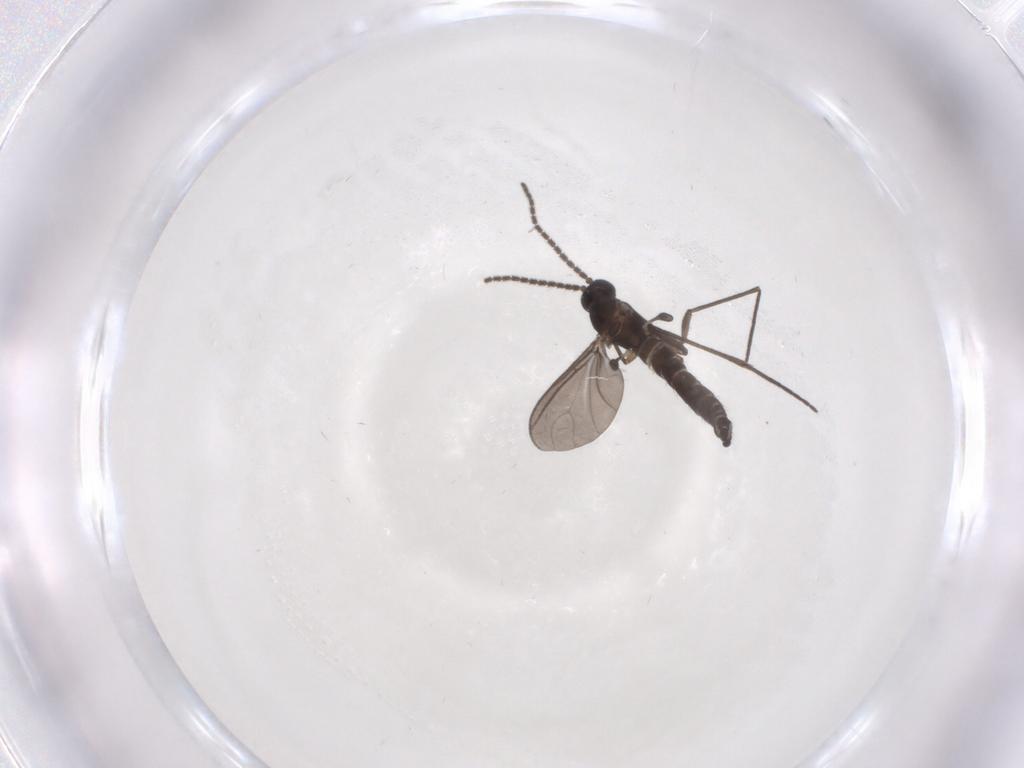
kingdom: Animalia
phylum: Arthropoda
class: Insecta
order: Diptera
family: Sciaridae
